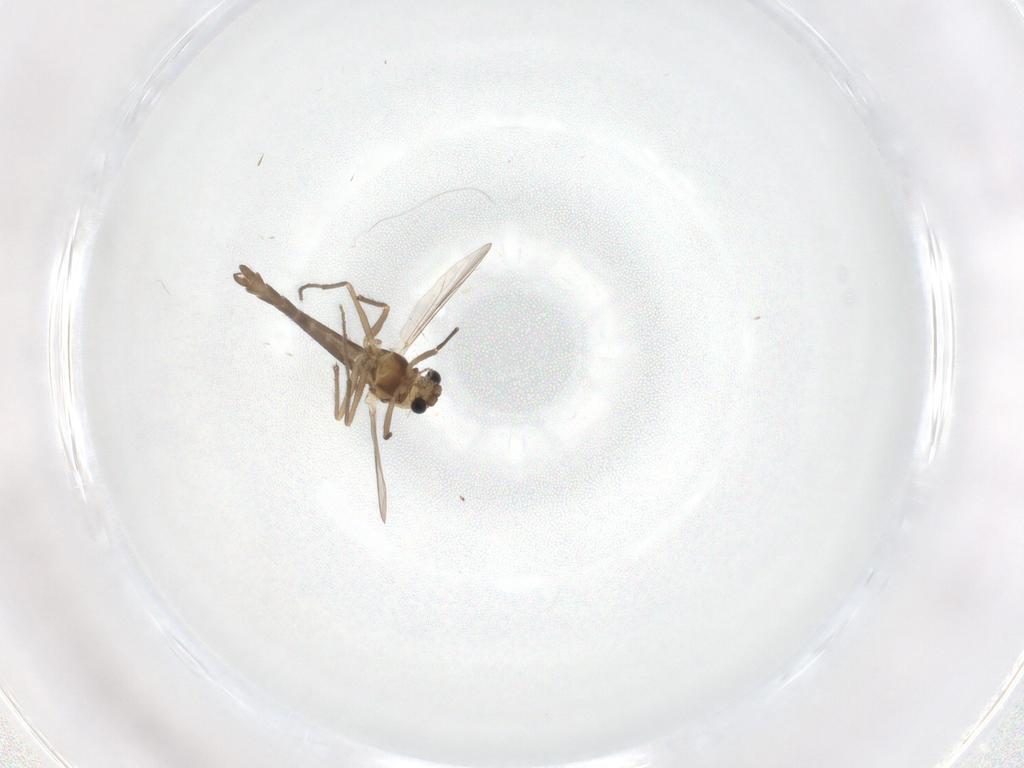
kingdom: Animalia
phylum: Arthropoda
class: Insecta
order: Diptera
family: Chironomidae
